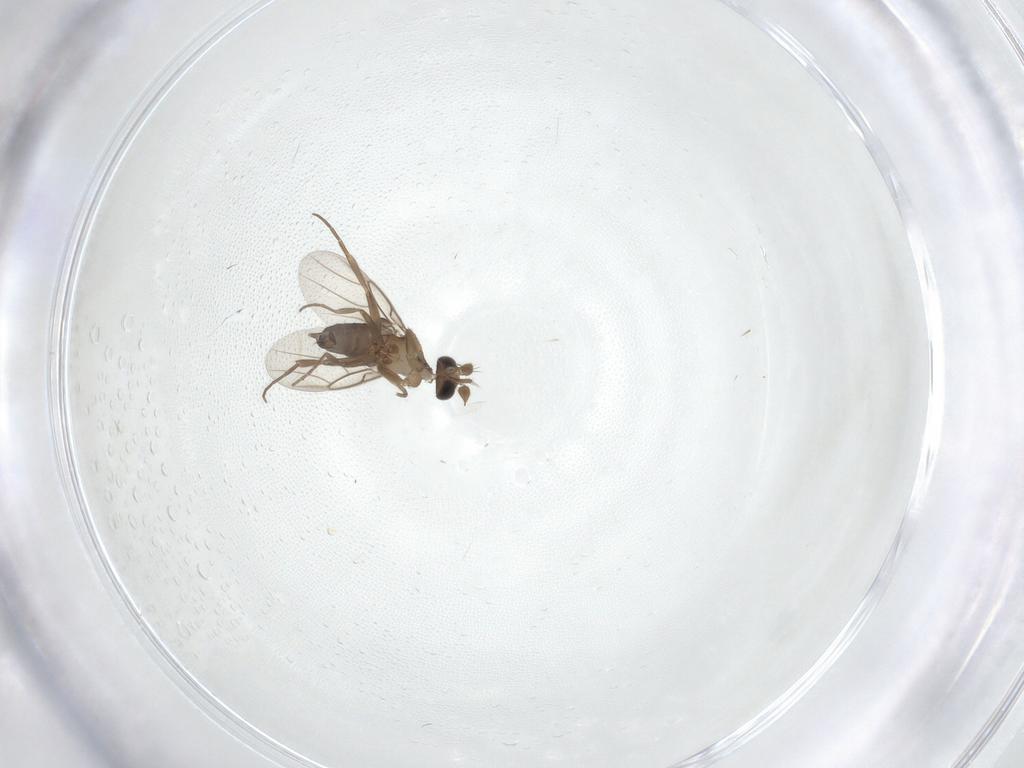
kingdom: Animalia
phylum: Arthropoda
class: Insecta
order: Diptera
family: Phoridae
